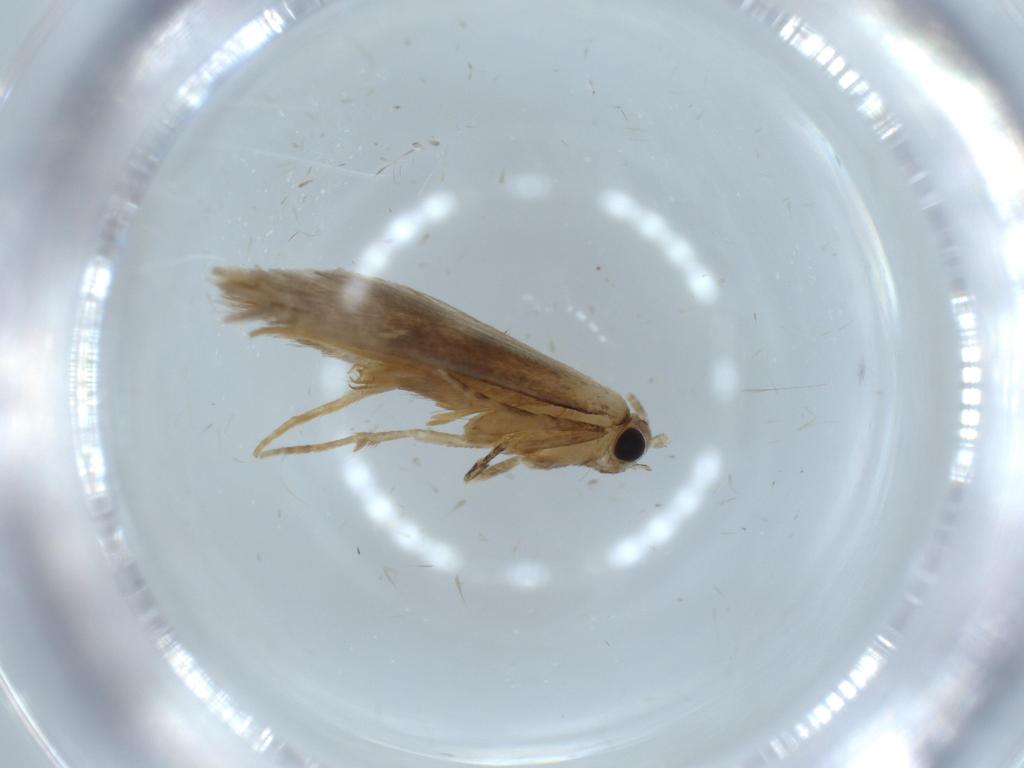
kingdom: Animalia
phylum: Arthropoda
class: Insecta
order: Lepidoptera
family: Tineidae
